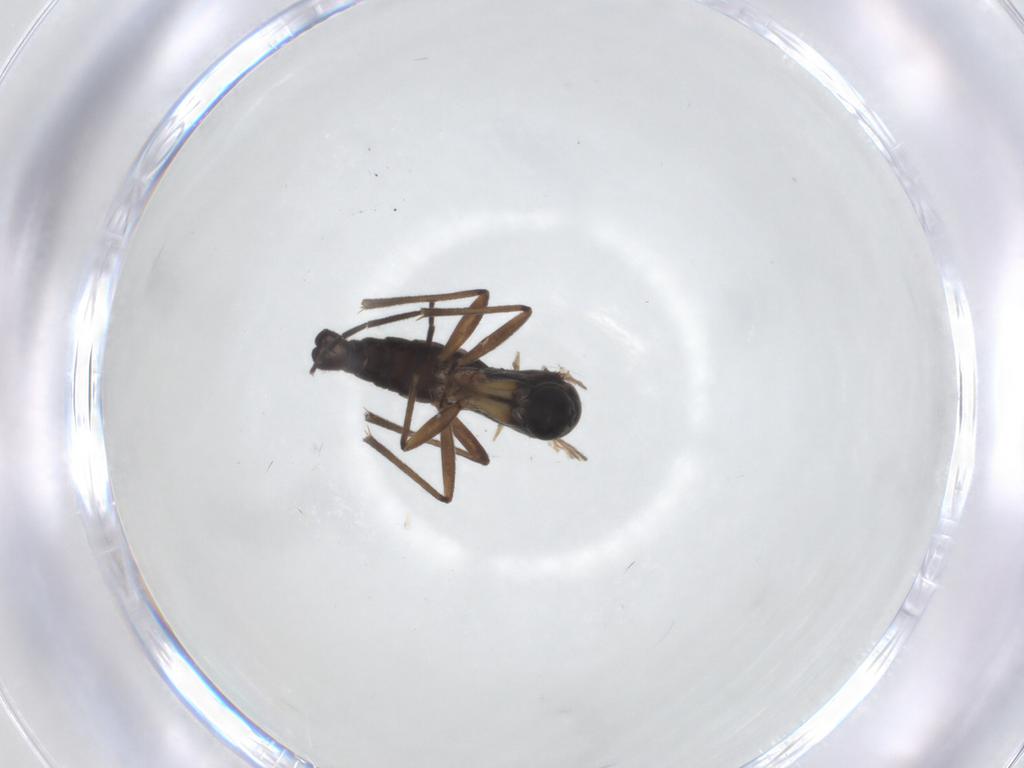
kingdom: Animalia
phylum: Arthropoda
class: Insecta
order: Diptera
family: Sciaridae
